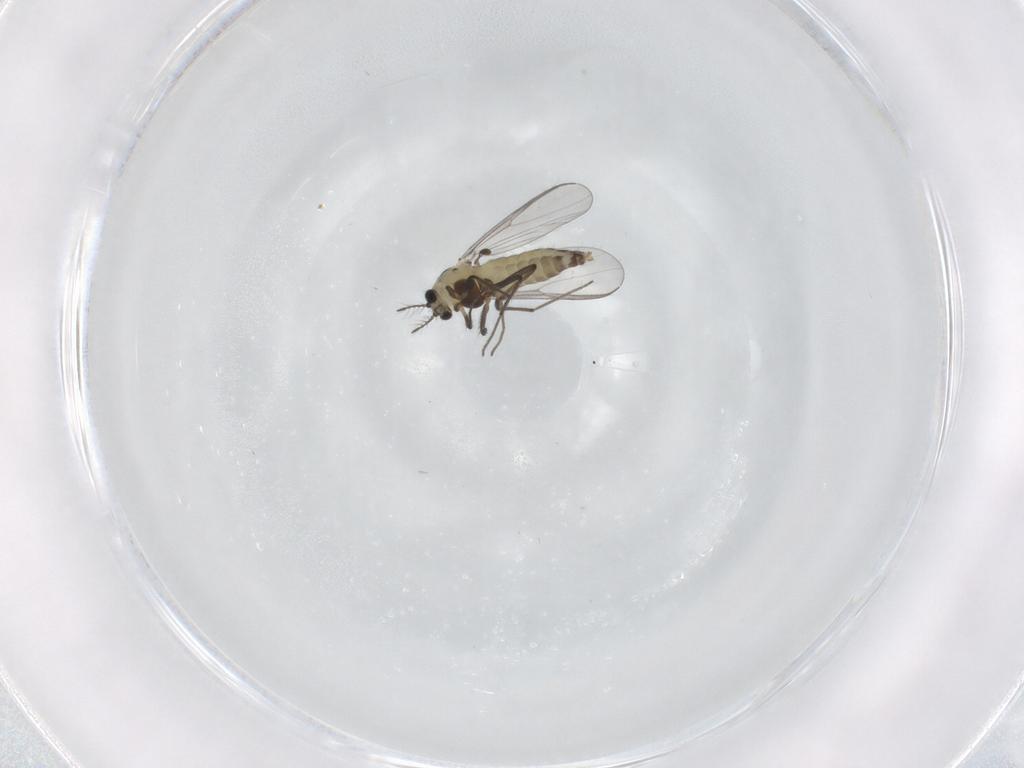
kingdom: Animalia
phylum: Arthropoda
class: Insecta
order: Diptera
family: Chironomidae
